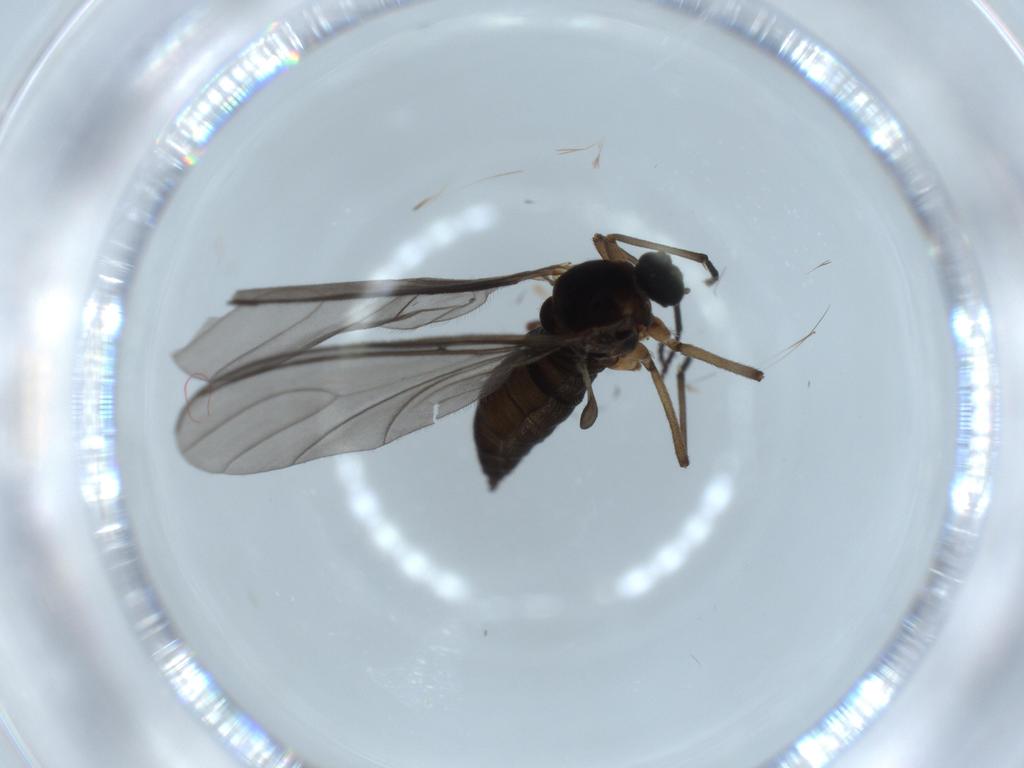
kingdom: Animalia
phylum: Arthropoda
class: Insecta
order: Diptera
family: Sciaridae
